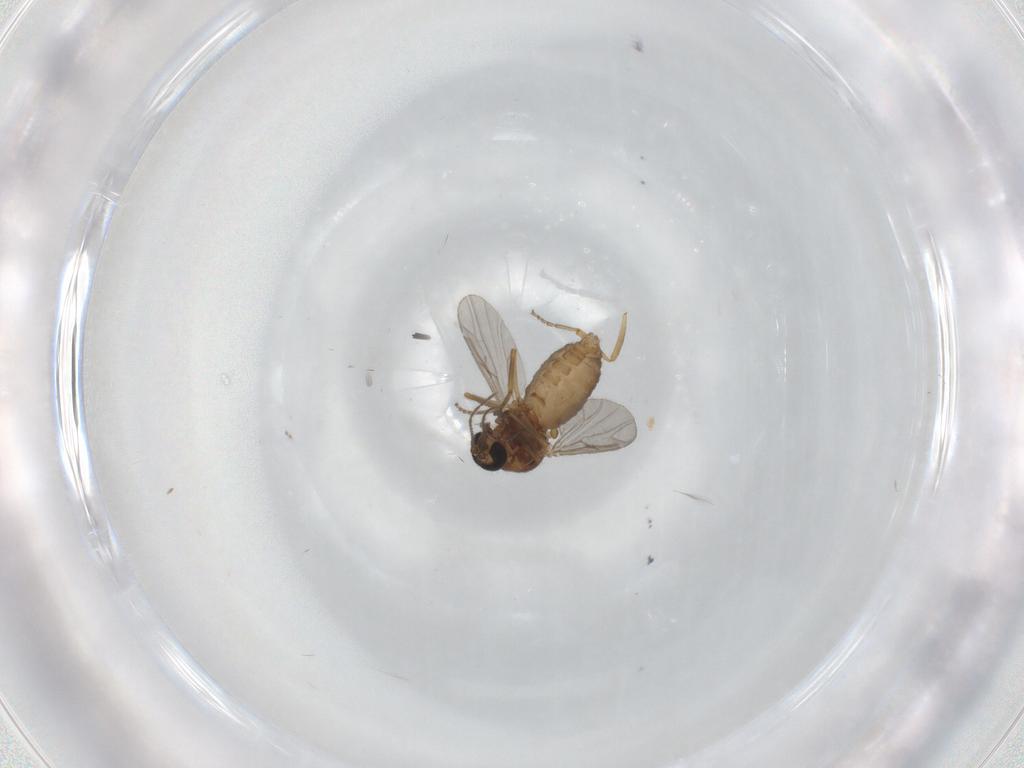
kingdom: Animalia
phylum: Arthropoda
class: Insecta
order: Diptera
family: Ceratopogonidae
